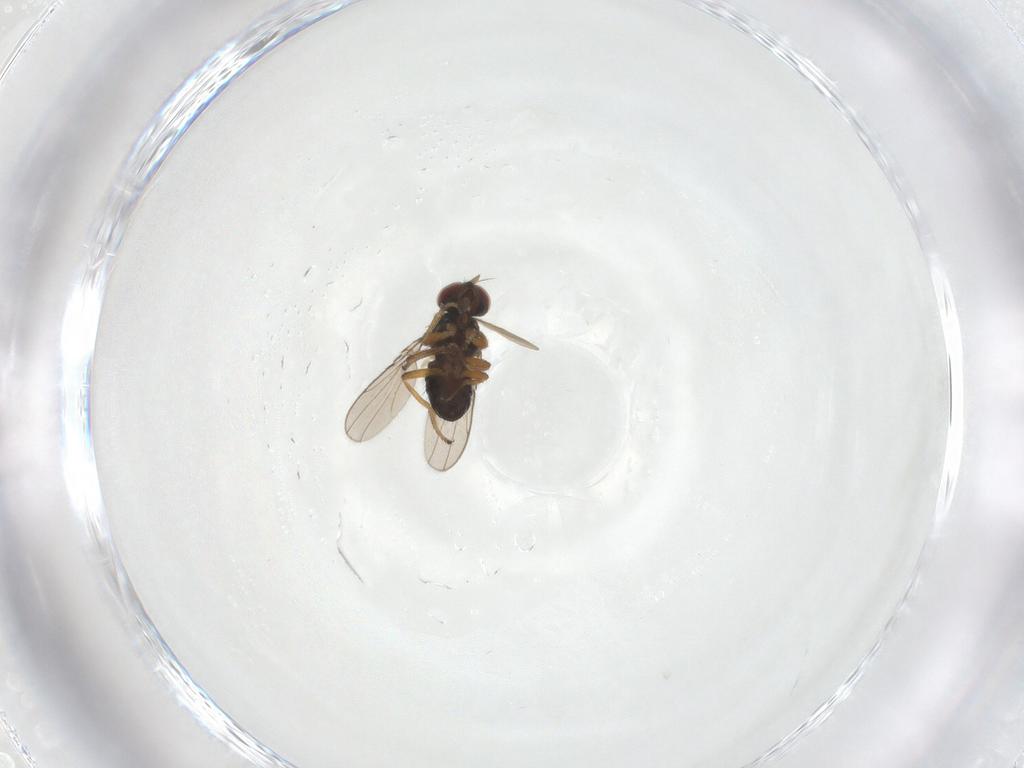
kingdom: Animalia
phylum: Arthropoda
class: Insecta
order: Diptera
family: Ephydridae
